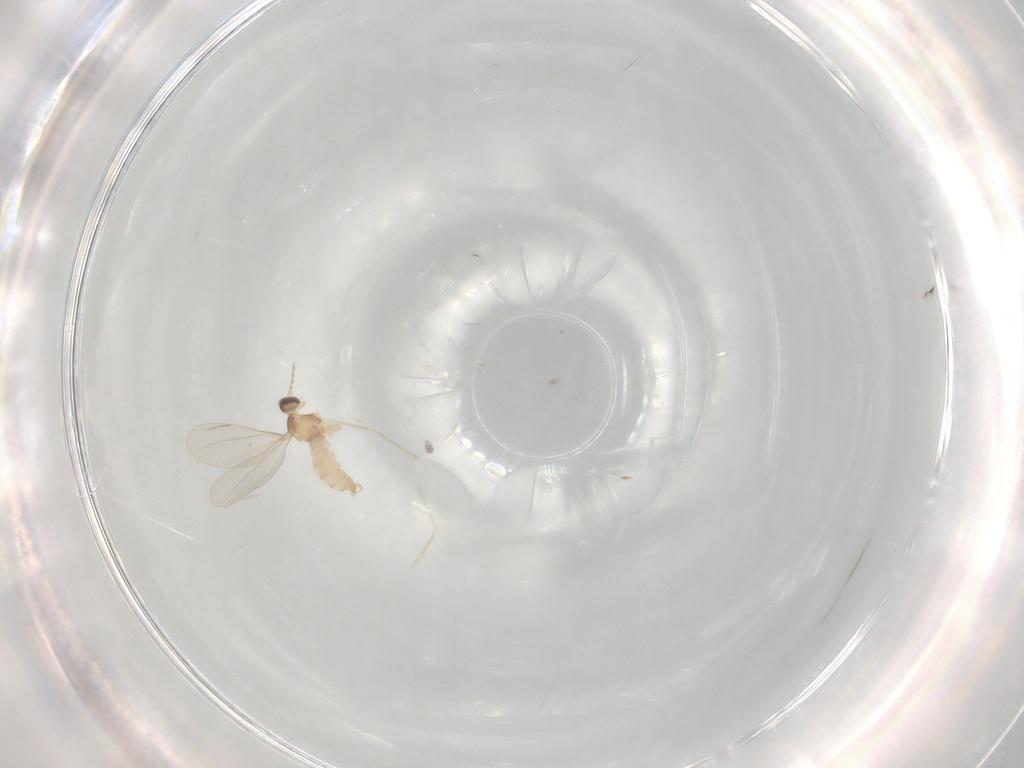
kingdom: Animalia
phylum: Arthropoda
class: Insecta
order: Diptera
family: Cecidomyiidae
